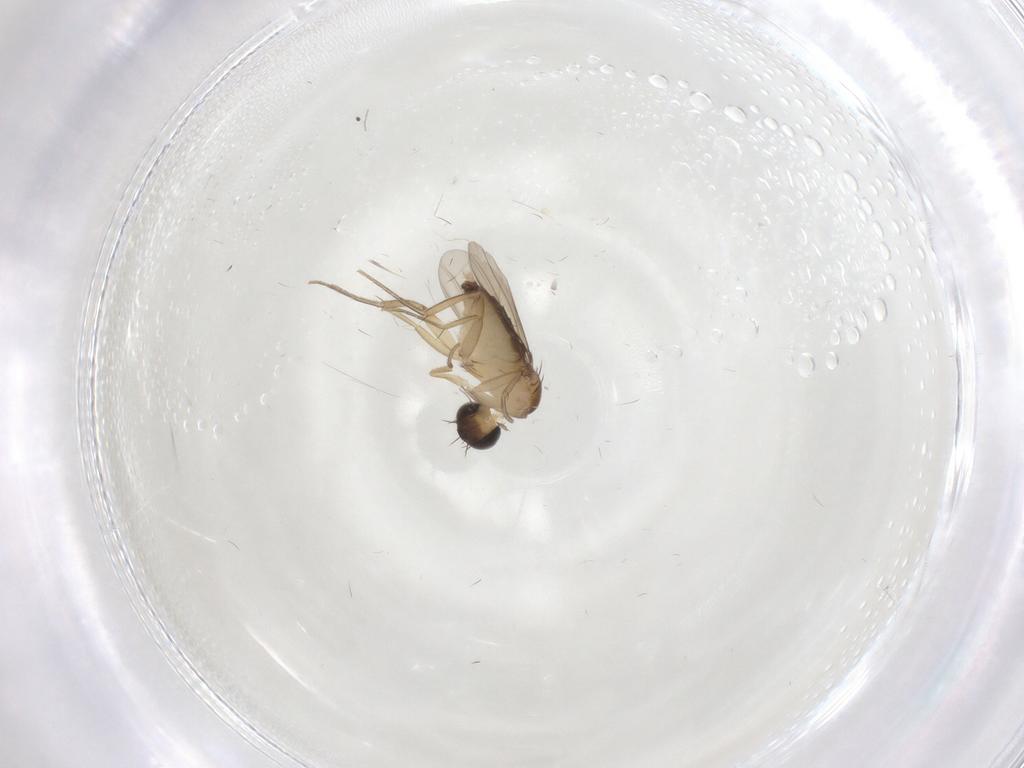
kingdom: Animalia
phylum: Arthropoda
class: Insecta
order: Diptera
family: Phoridae
